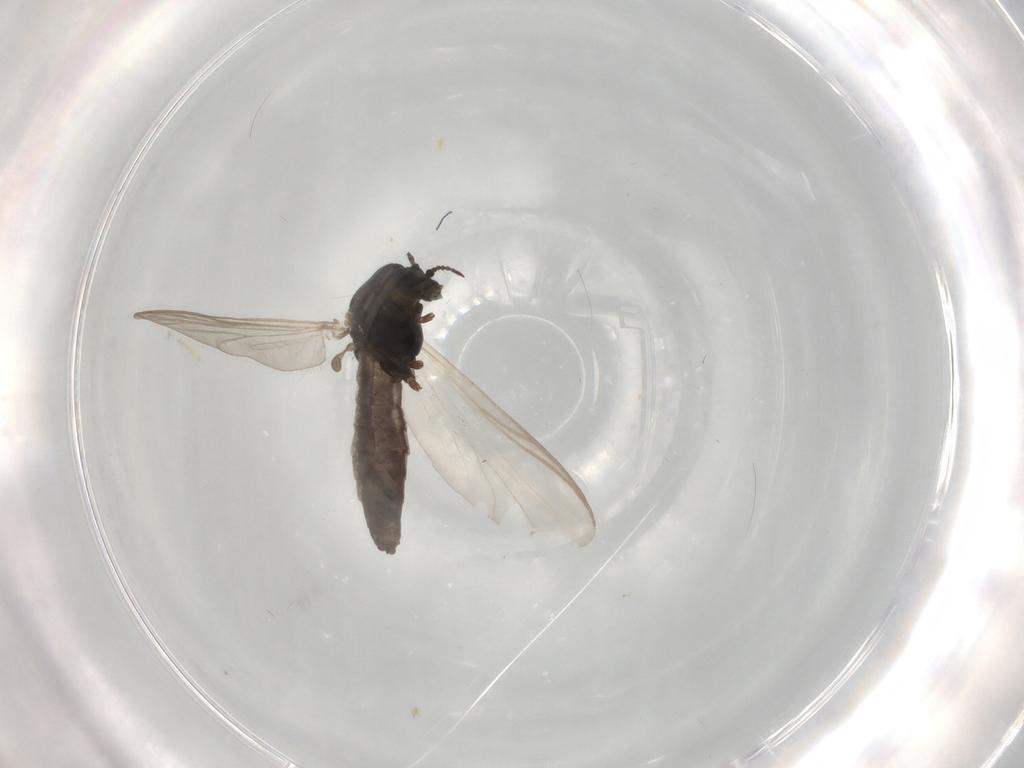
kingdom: Animalia
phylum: Arthropoda
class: Insecta
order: Diptera
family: Chironomidae
